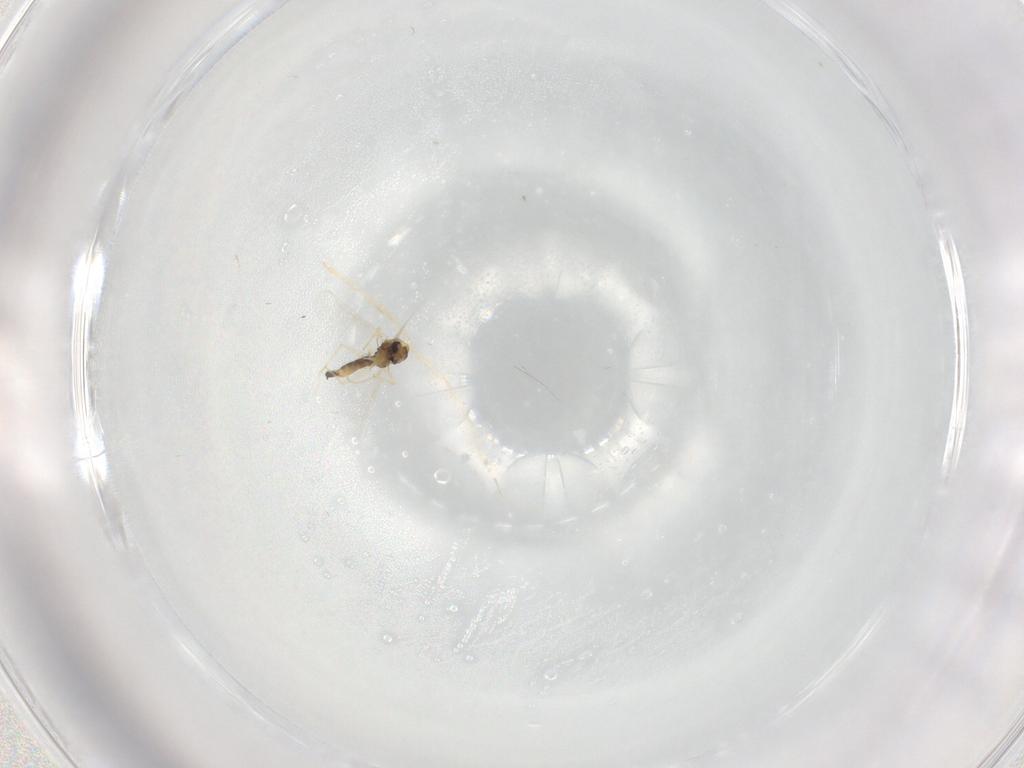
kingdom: Animalia
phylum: Arthropoda
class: Insecta
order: Diptera
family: Chironomidae
